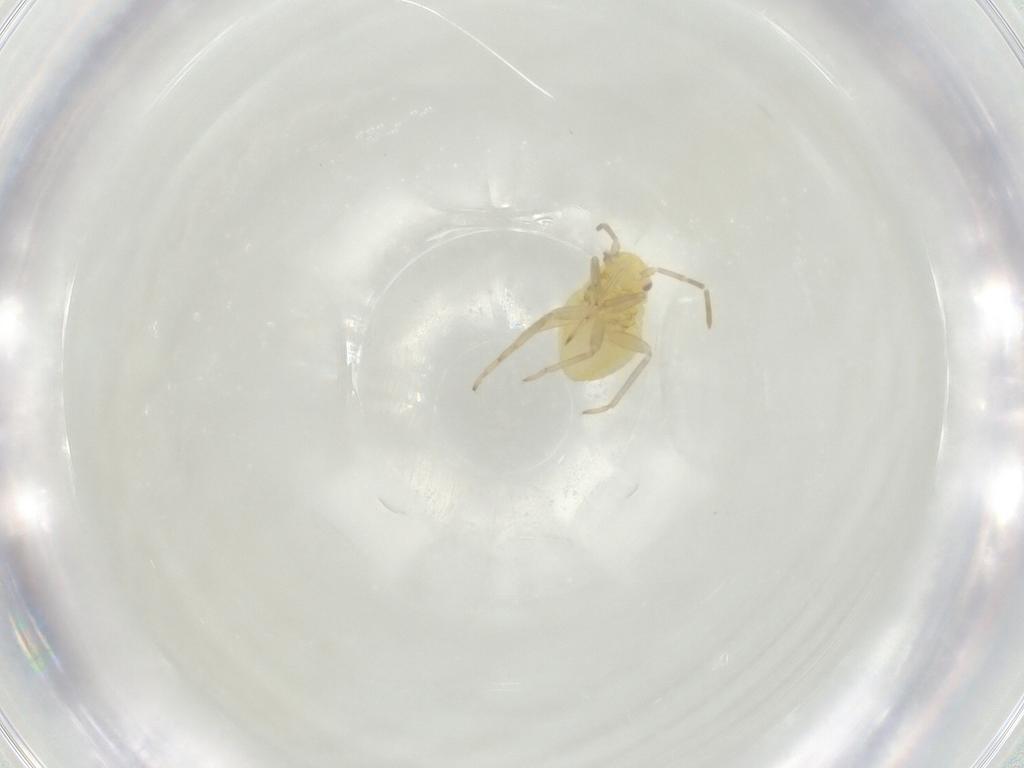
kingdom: Animalia
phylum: Arthropoda
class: Insecta
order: Hemiptera
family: Miridae
